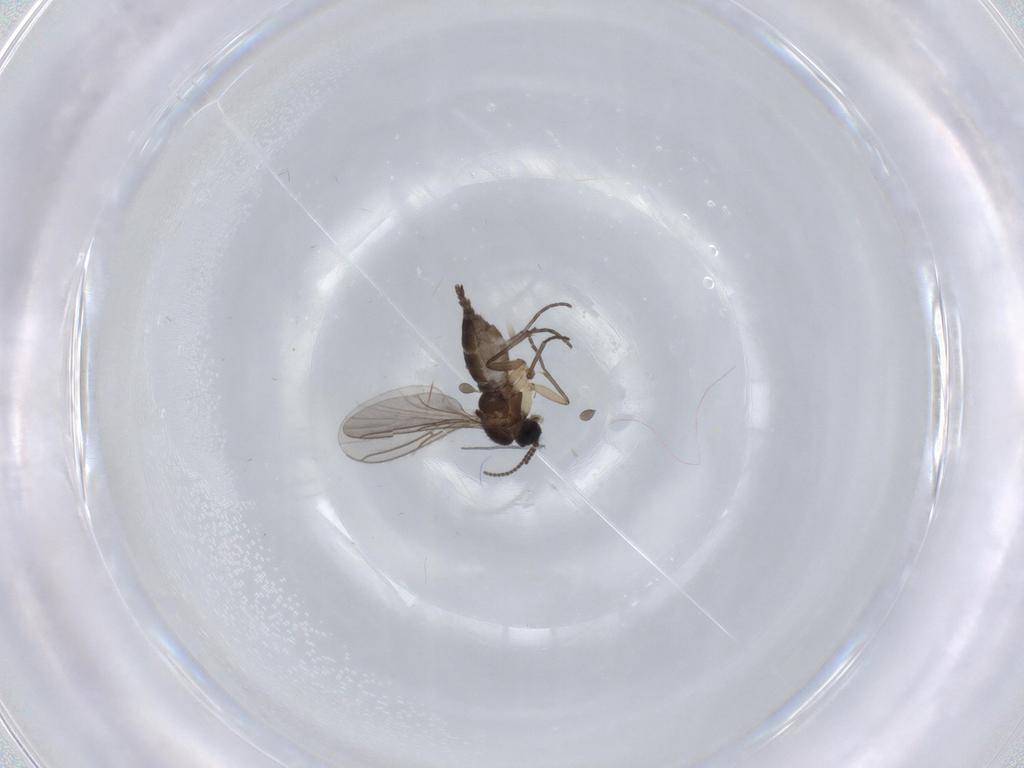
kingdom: Animalia
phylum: Arthropoda
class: Insecta
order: Diptera
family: Sciaridae
